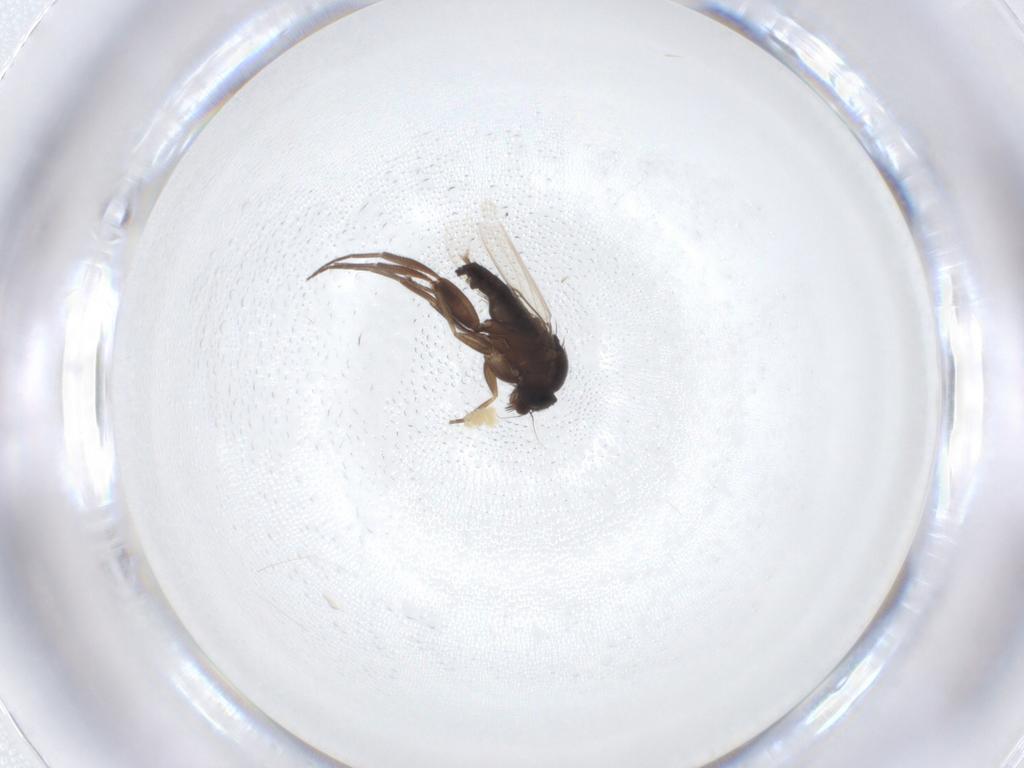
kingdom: Animalia
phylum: Arthropoda
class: Insecta
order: Diptera
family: Phoridae
